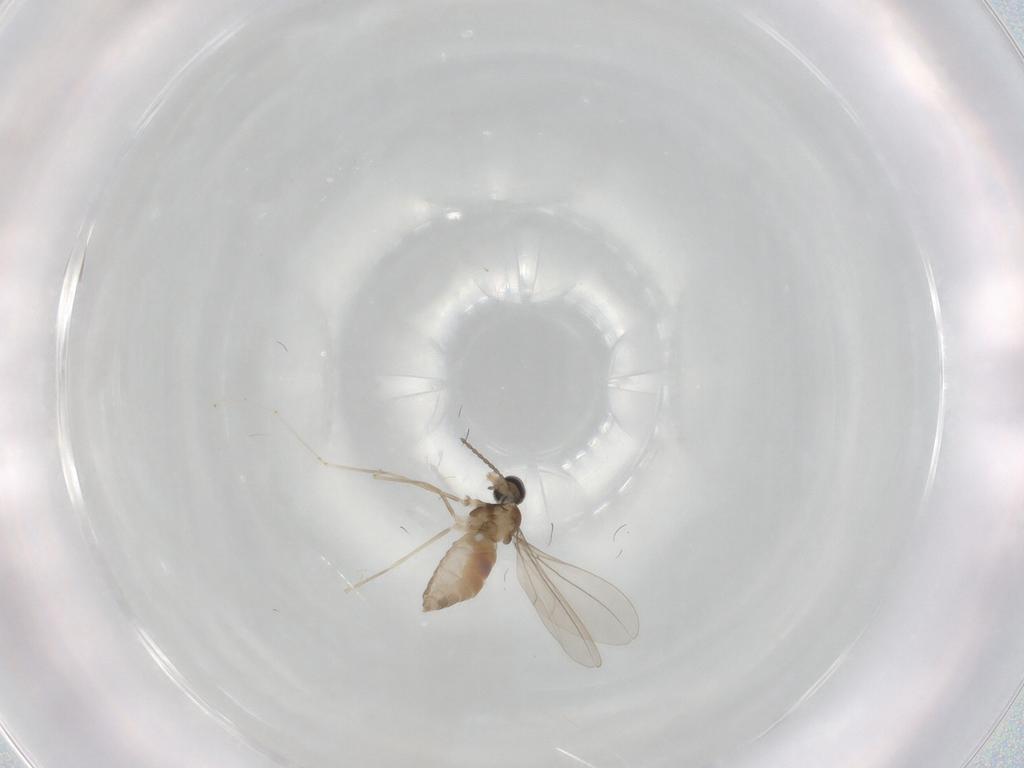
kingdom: Animalia
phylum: Arthropoda
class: Insecta
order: Diptera
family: Cecidomyiidae
